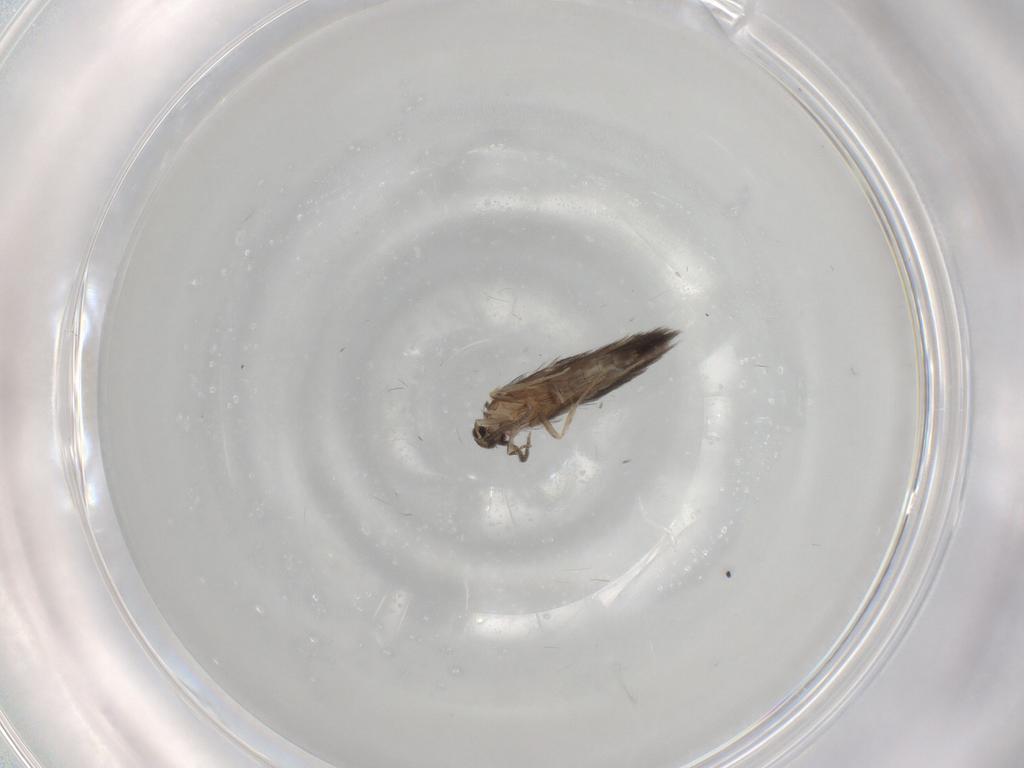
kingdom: Animalia
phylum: Arthropoda
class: Insecta
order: Trichoptera
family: Hydroptilidae
